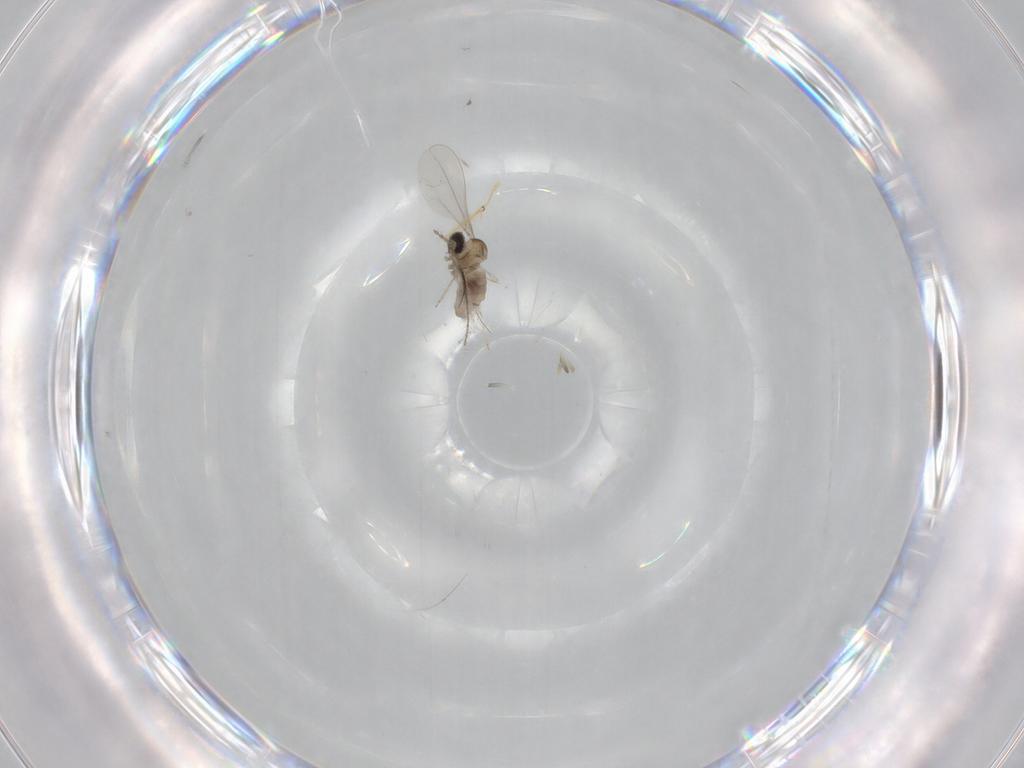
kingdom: Animalia
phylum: Arthropoda
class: Insecta
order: Diptera
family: Chironomidae
